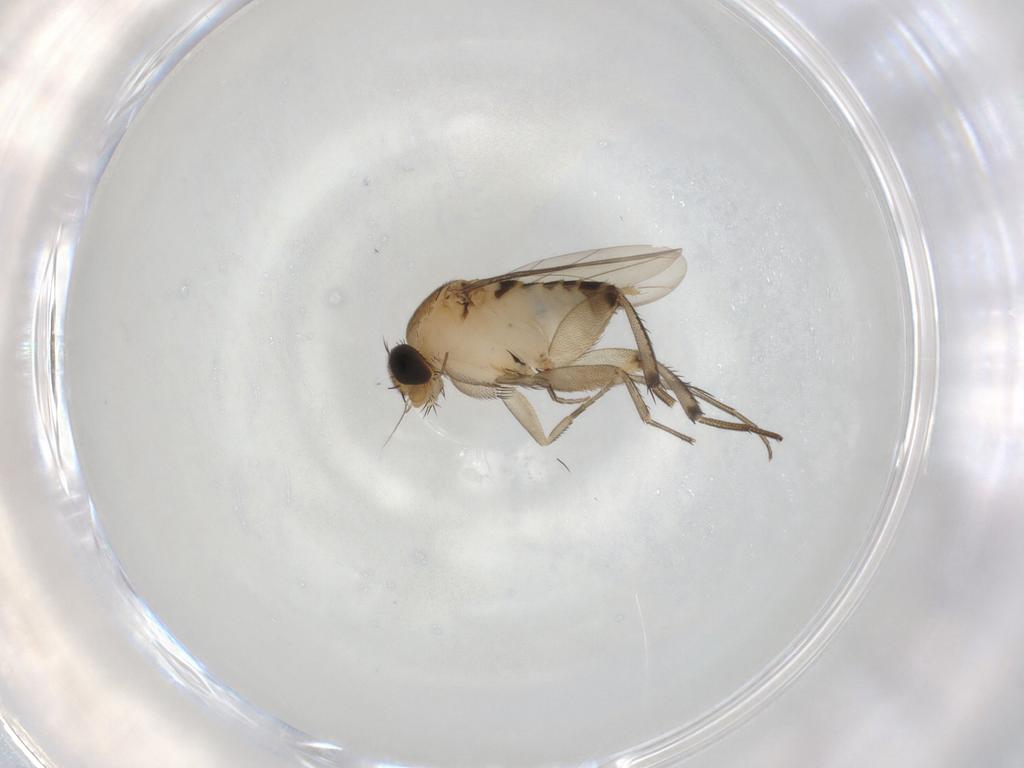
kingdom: Animalia
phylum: Arthropoda
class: Insecta
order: Diptera
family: Phoridae
